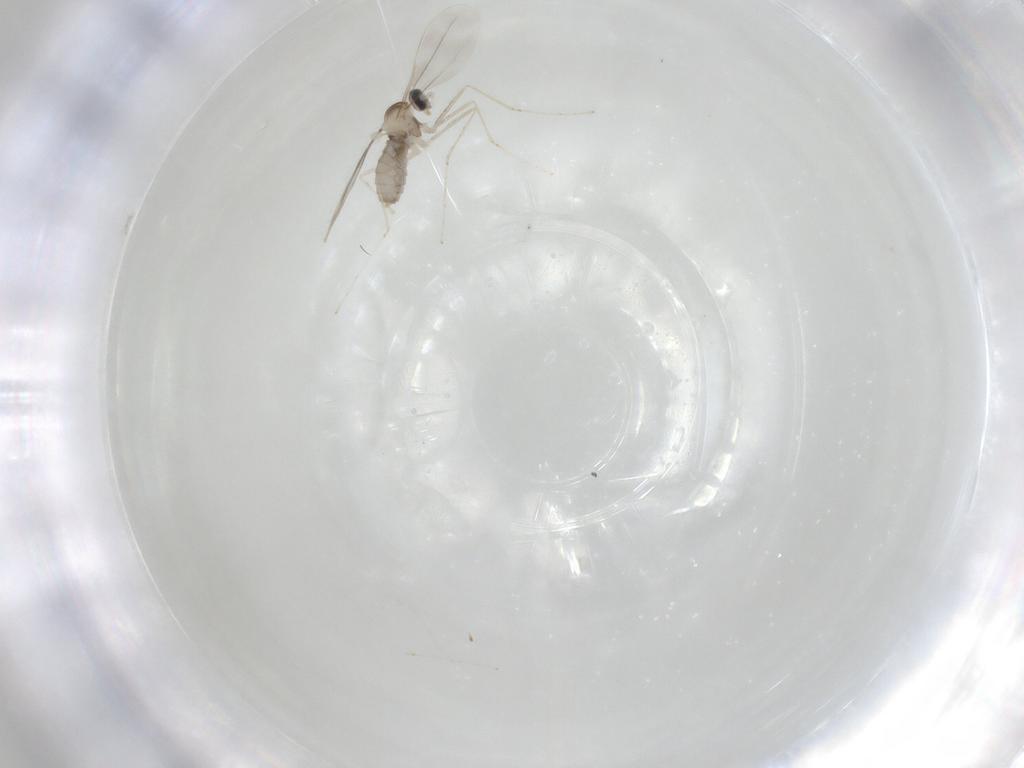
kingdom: Animalia
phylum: Arthropoda
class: Insecta
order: Diptera
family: Cecidomyiidae
